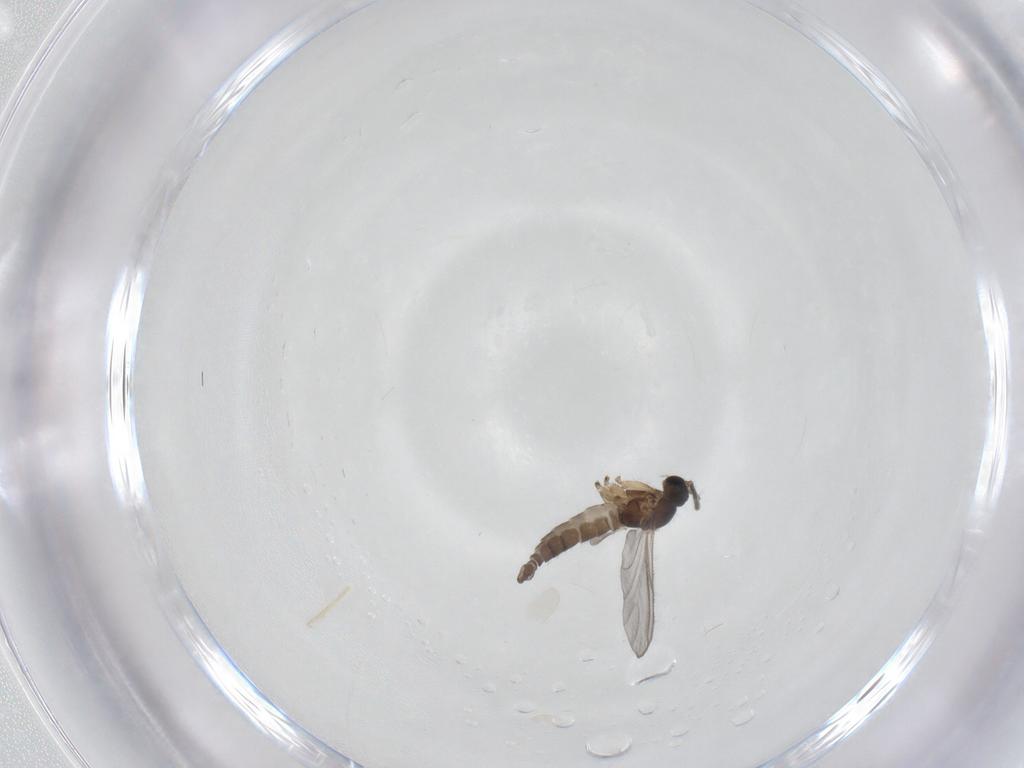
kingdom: Animalia
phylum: Arthropoda
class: Insecta
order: Diptera
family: Sciaridae
